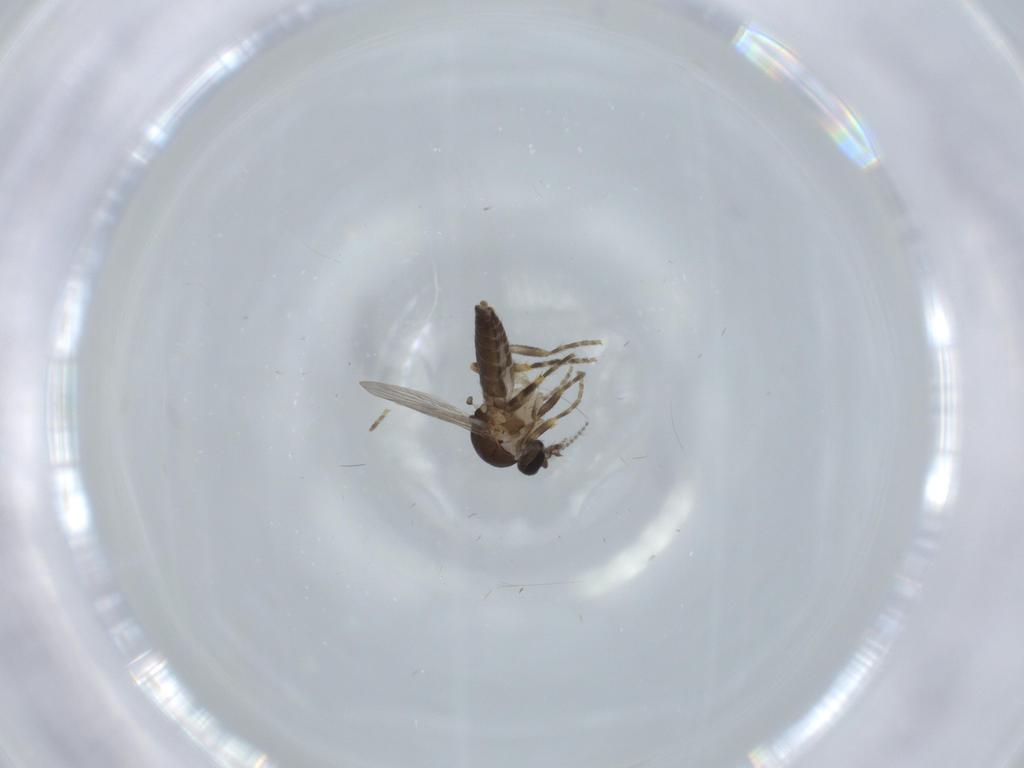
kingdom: Animalia
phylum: Arthropoda
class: Insecta
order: Diptera
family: Ceratopogonidae
